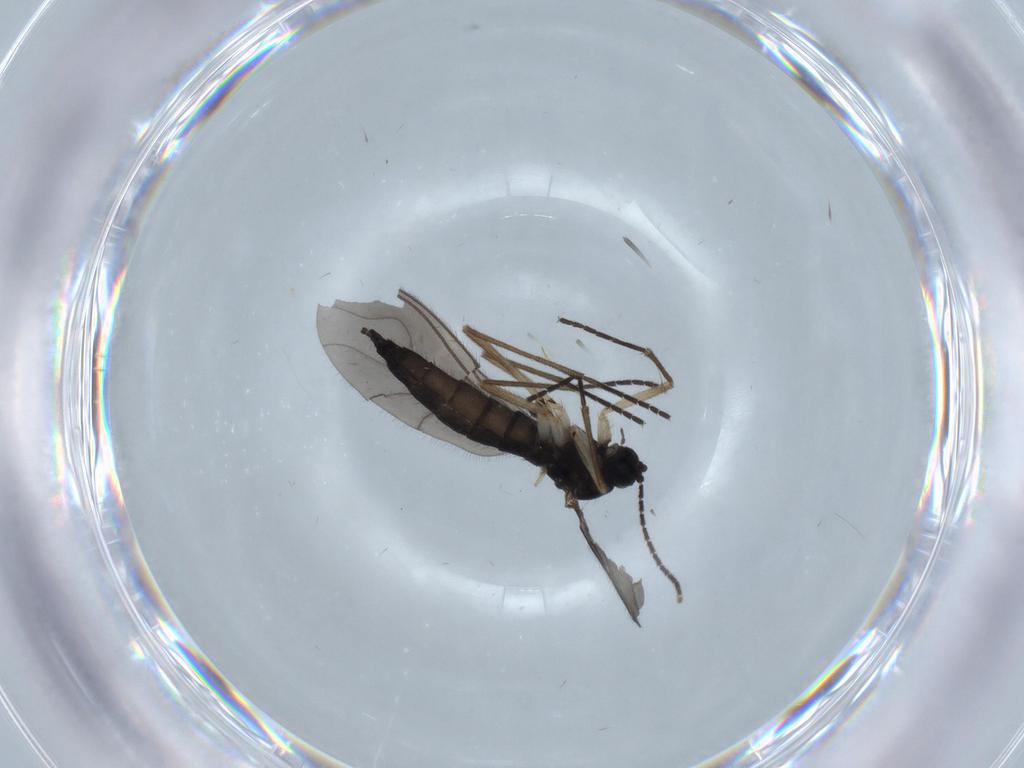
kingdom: Animalia
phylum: Arthropoda
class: Insecta
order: Diptera
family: Sciaridae
